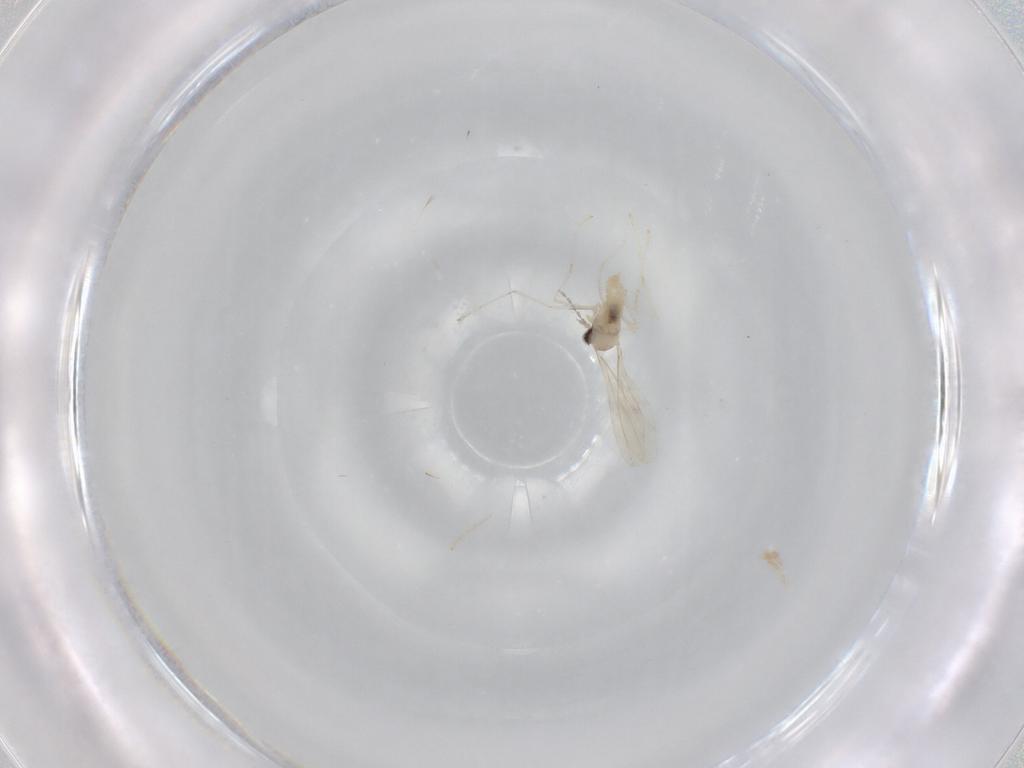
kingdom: Animalia
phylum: Arthropoda
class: Insecta
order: Diptera
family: Cecidomyiidae
